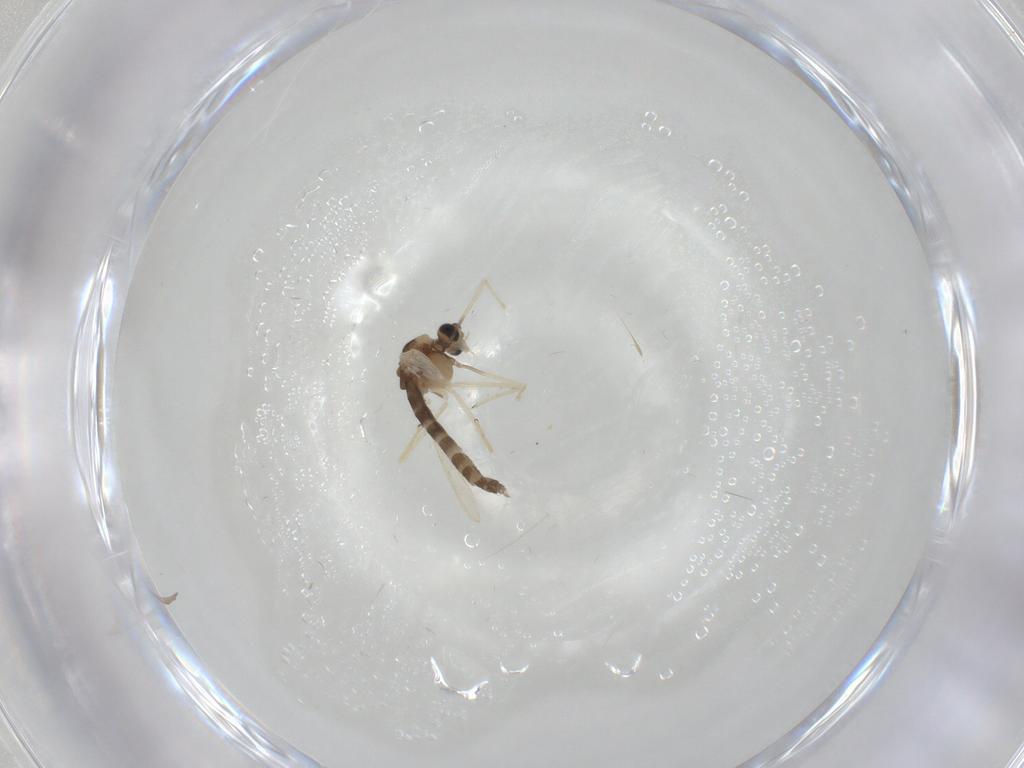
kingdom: Animalia
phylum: Arthropoda
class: Insecta
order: Diptera
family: Chironomidae
